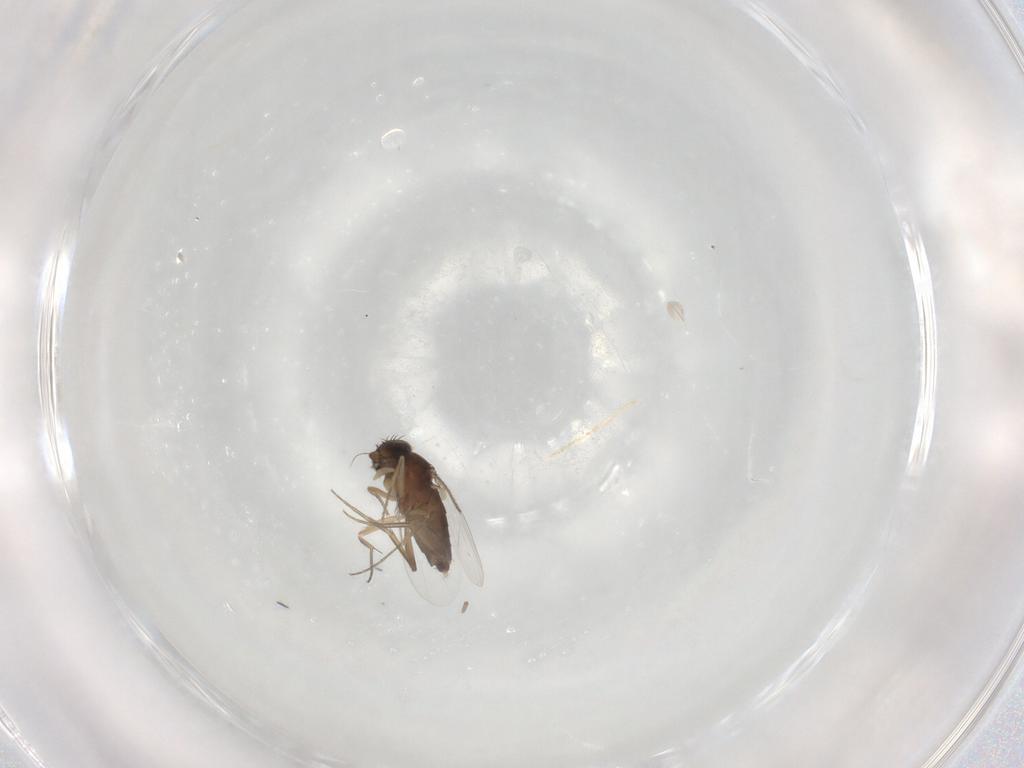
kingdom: Animalia
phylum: Arthropoda
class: Insecta
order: Diptera
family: Phoridae
